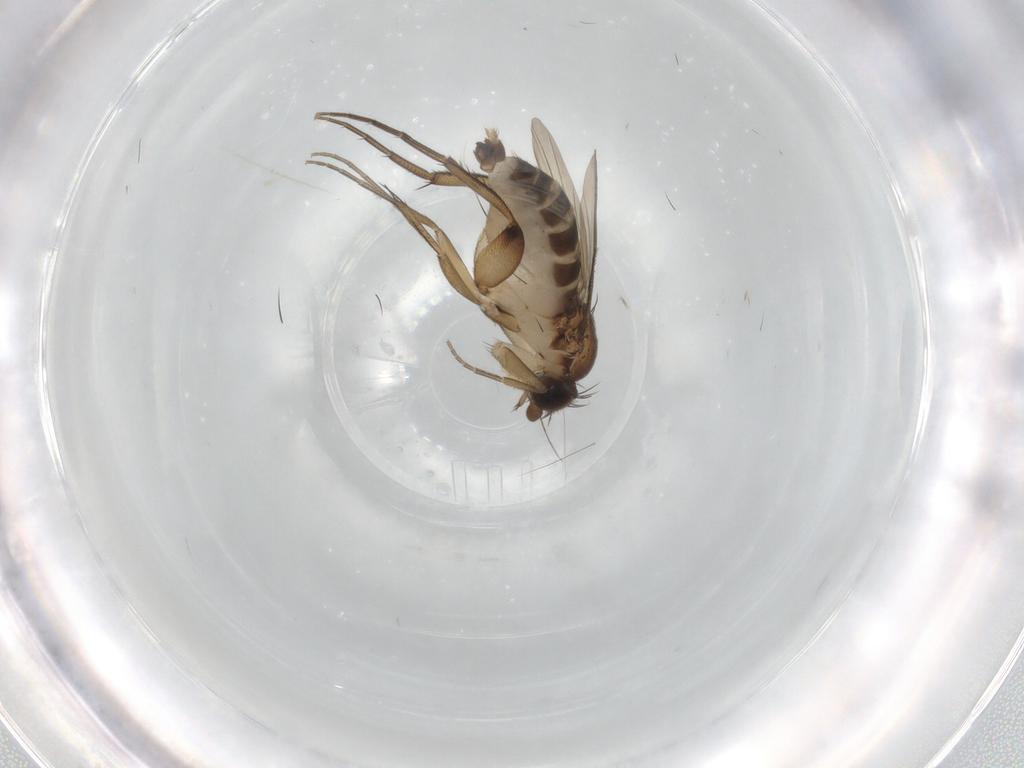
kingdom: Animalia
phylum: Arthropoda
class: Insecta
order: Diptera
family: Phoridae
